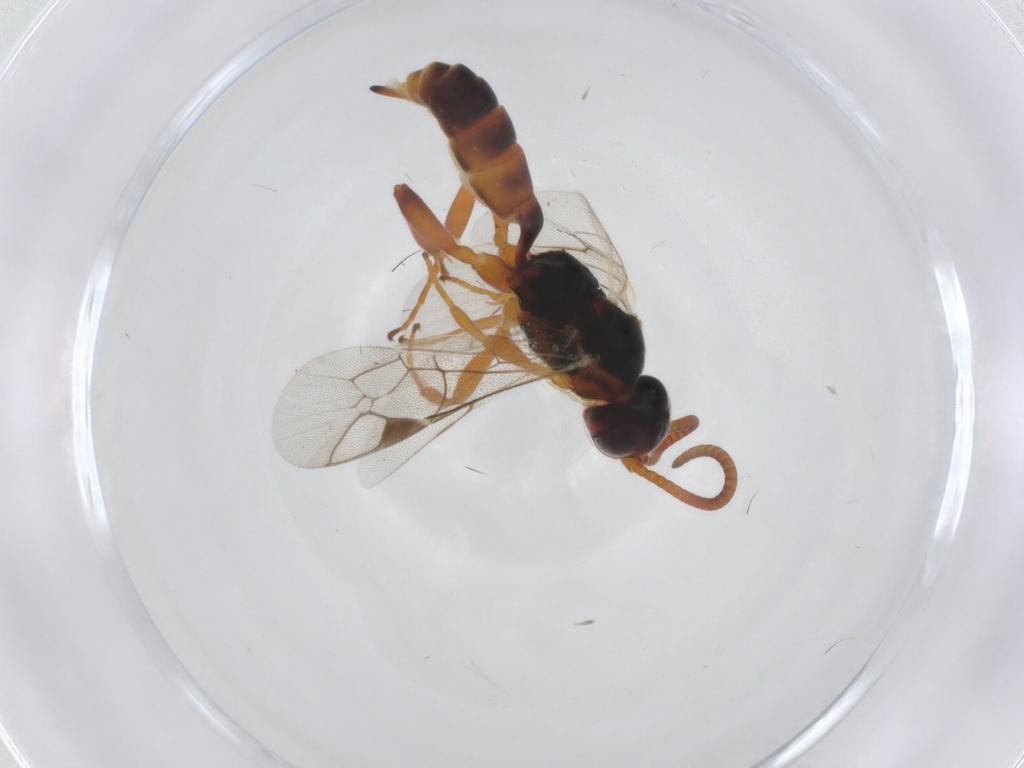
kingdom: Animalia
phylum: Arthropoda
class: Insecta
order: Hymenoptera
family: Ichneumonidae
